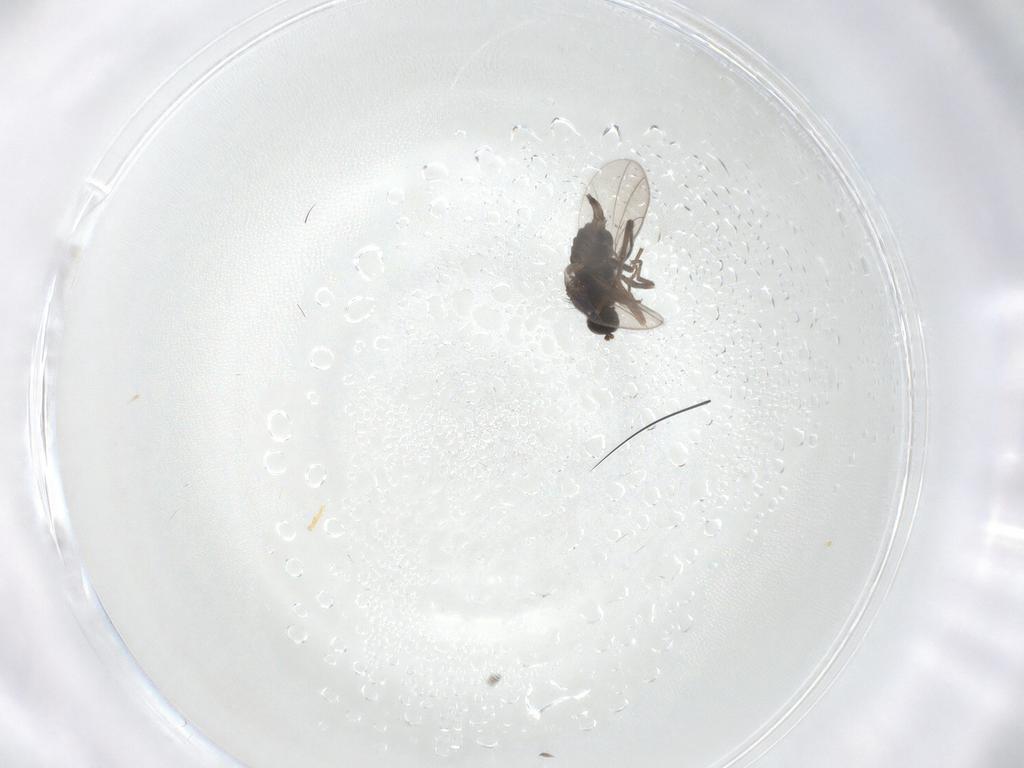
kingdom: Animalia
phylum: Arthropoda
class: Insecta
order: Diptera
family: Hybotidae
